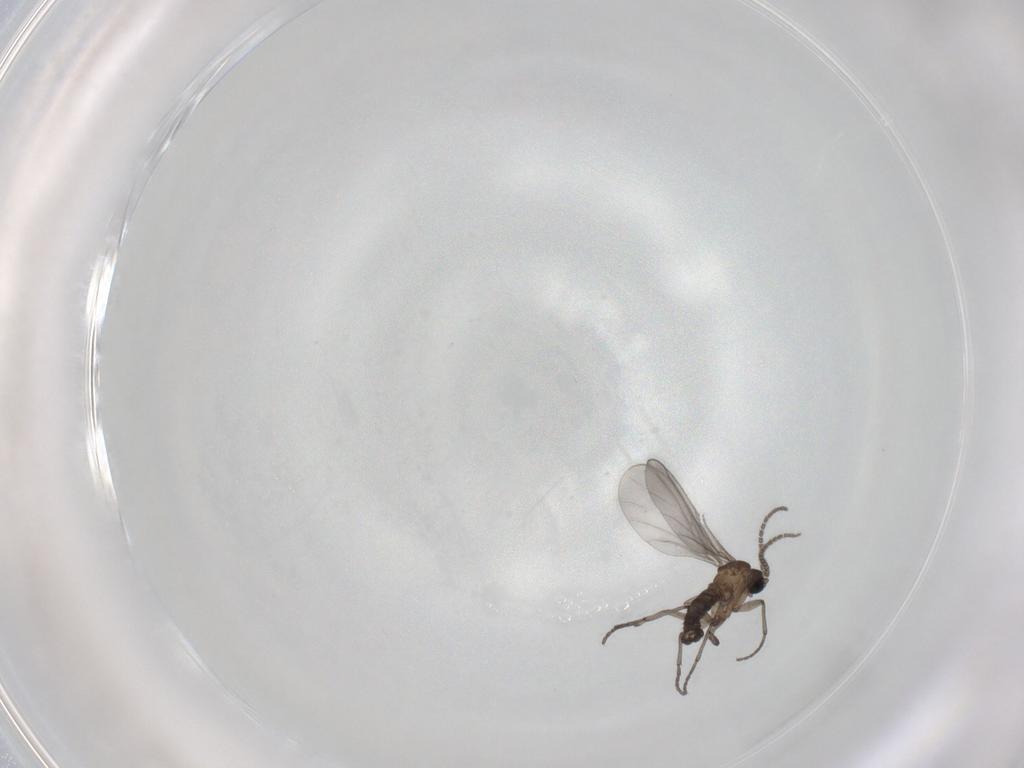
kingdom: Animalia
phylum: Arthropoda
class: Insecta
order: Diptera
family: Sciaridae
